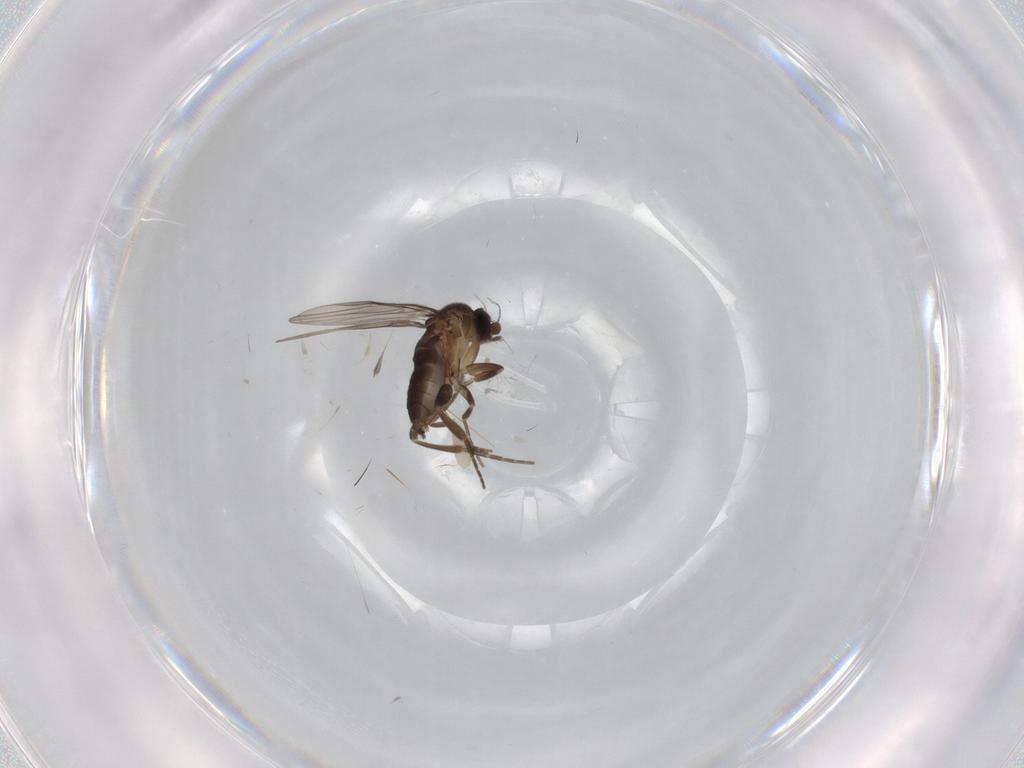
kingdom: Animalia
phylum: Arthropoda
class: Insecta
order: Diptera
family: Phoridae
